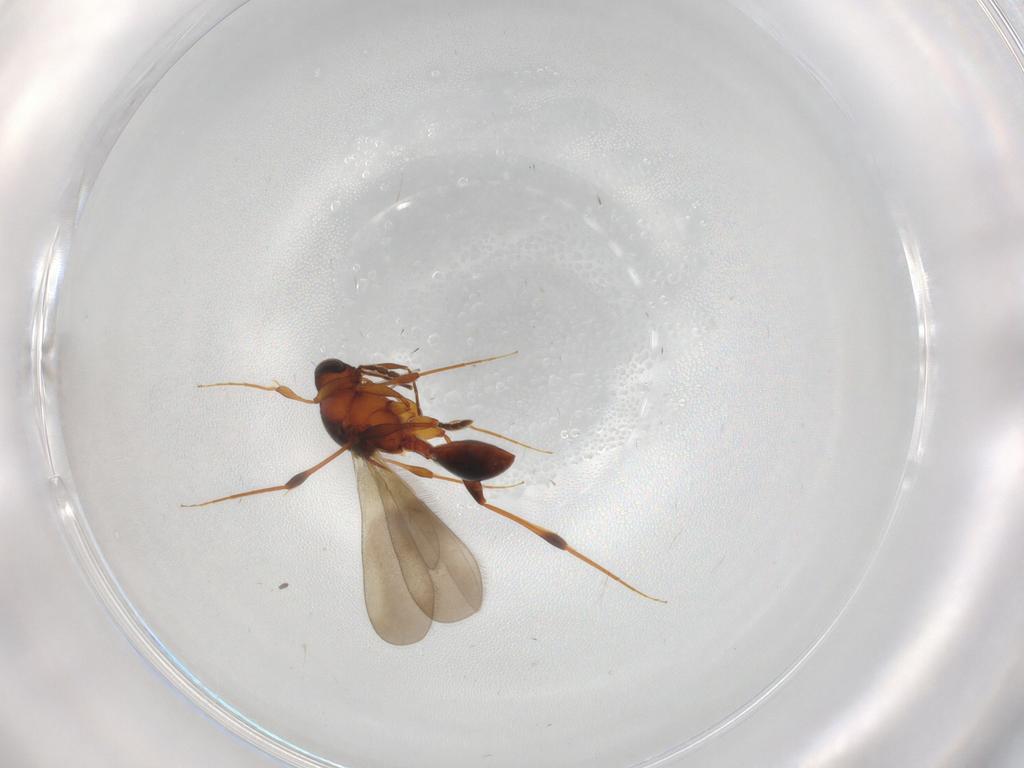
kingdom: Animalia
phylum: Arthropoda
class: Insecta
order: Hymenoptera
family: Platygastridae
